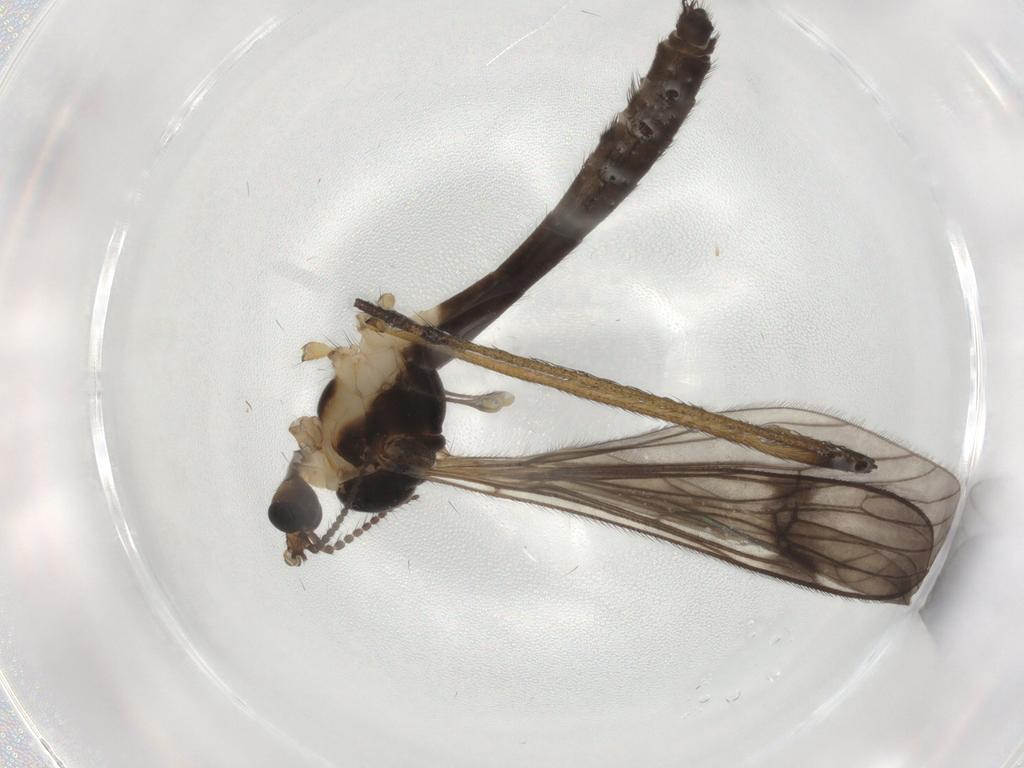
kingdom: Animalia
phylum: Arthropoda
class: Insecta
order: Diptera
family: Limoniidae
